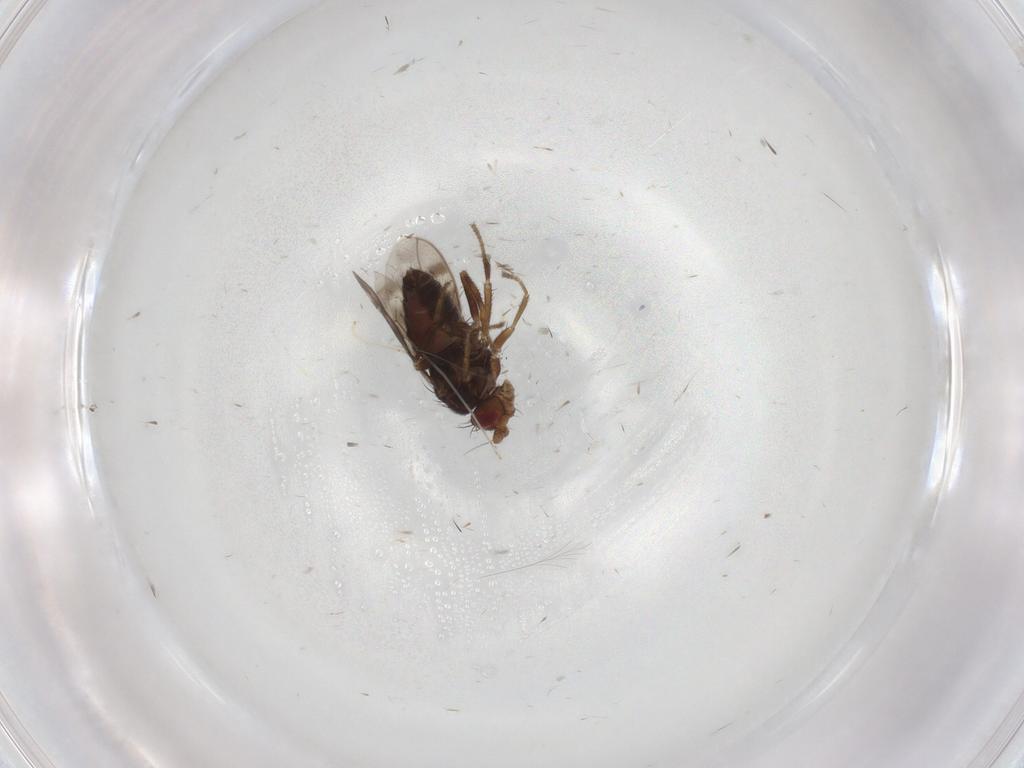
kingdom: Animalia
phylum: Arthropoda
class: Insecta
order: Diptera
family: Sphaeroceridae
